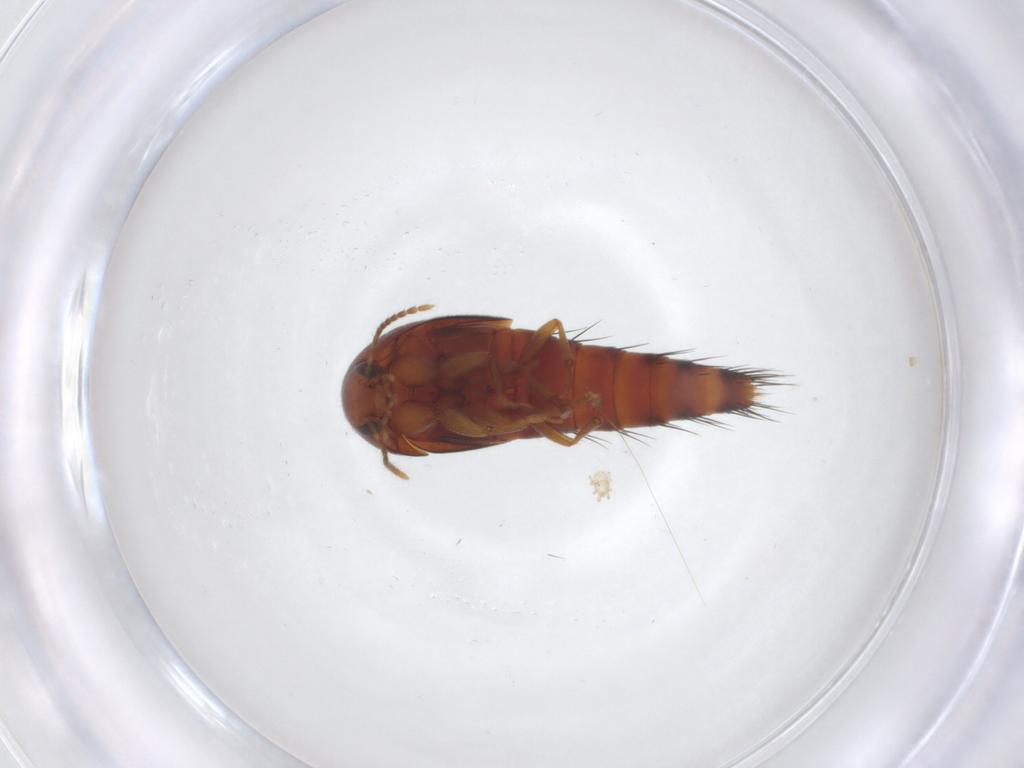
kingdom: Animalia
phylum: Arthropoda
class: Insecta
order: Coleoptera
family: Staphylinidae
